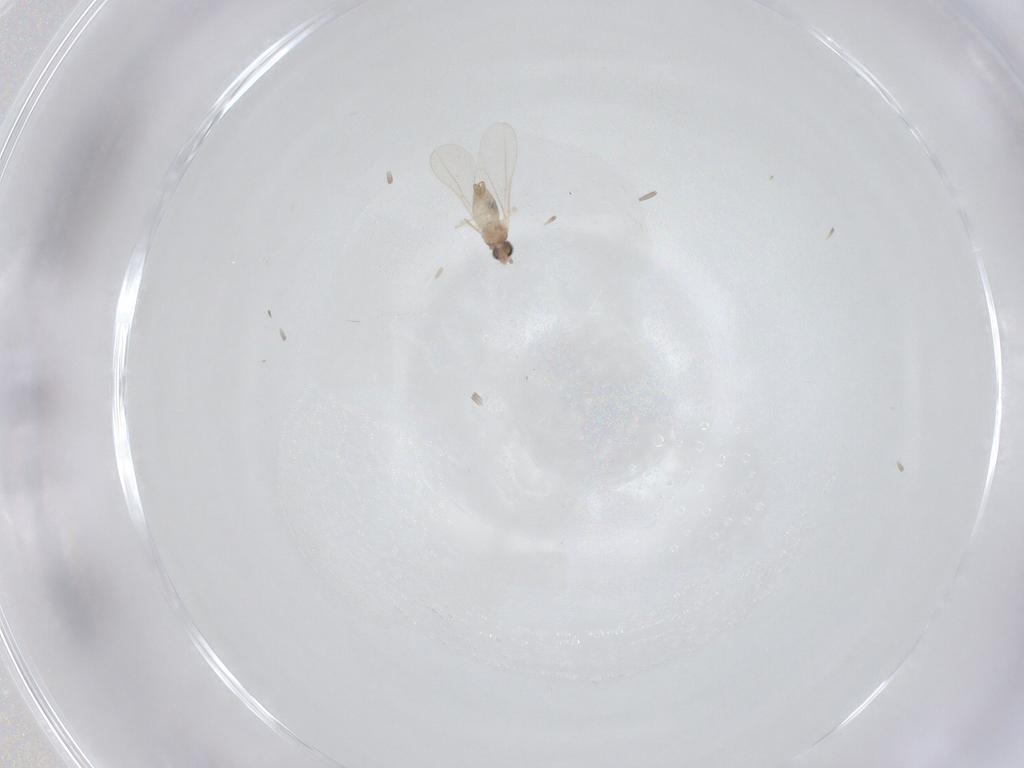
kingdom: Animalia
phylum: Arthropoda
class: Insecta
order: Diptera
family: Cecidomyiidae
